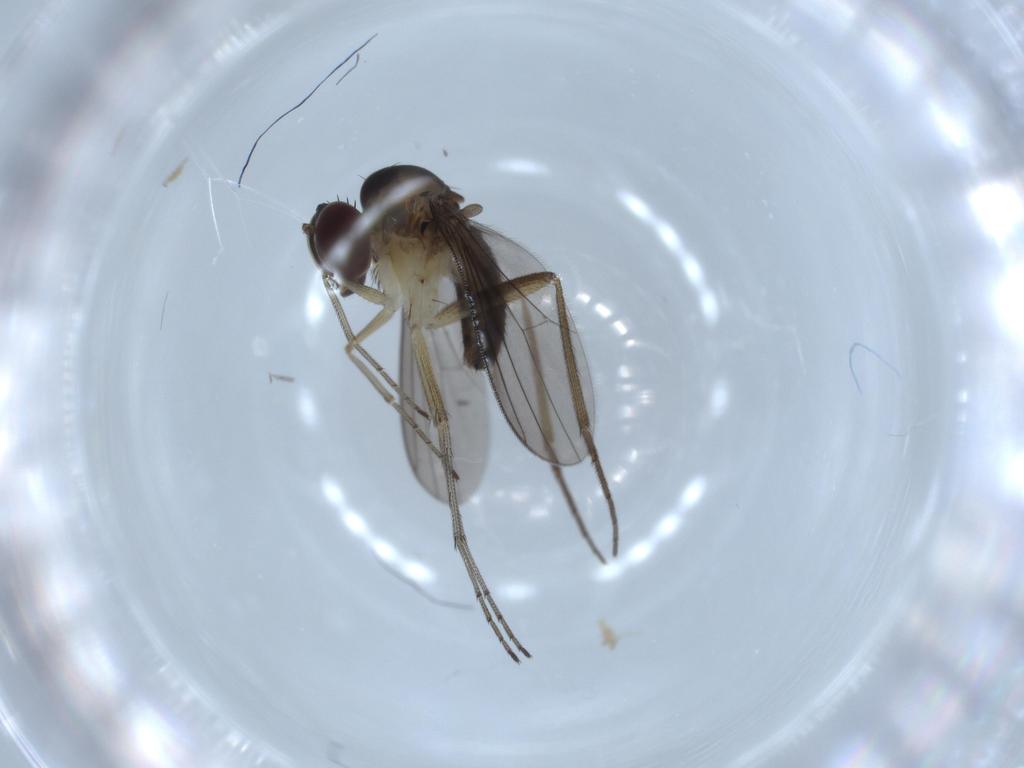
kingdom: Animalia
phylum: Arthropoda
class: Insecta
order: Diptera
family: Dolichopodidae
